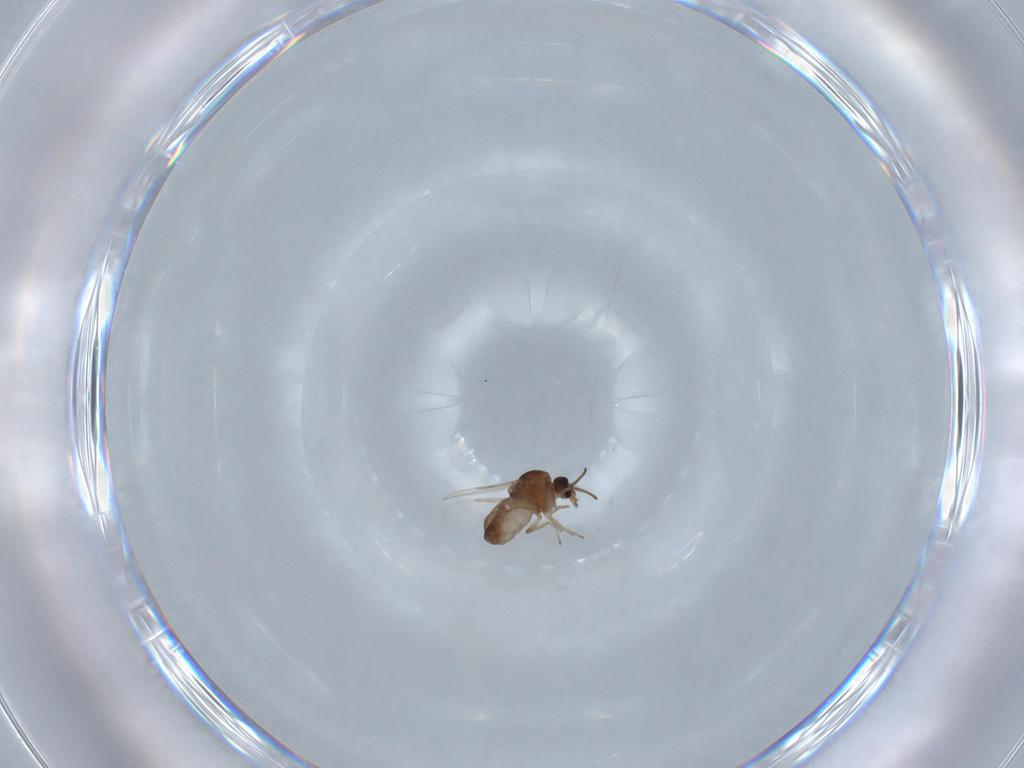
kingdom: Animalia
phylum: Arthropoda
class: Insecta
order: Diptera
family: Ceratopogonidae
